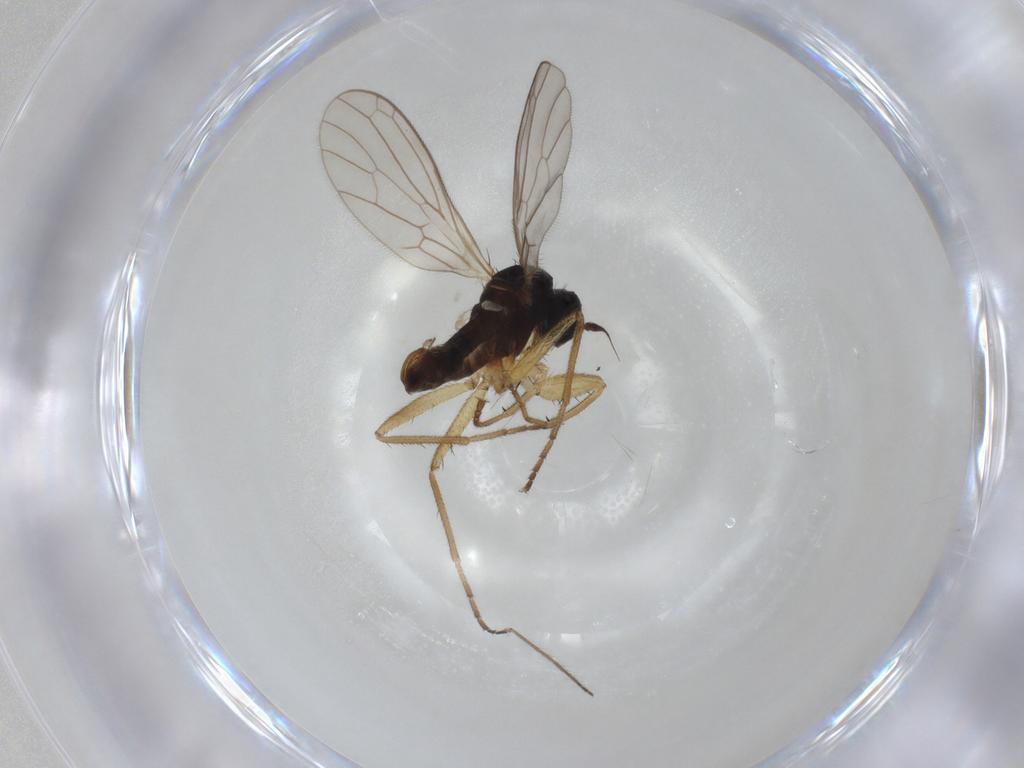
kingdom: Animalia
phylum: Arthropoda
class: Insecta
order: Diptera
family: Empididae
